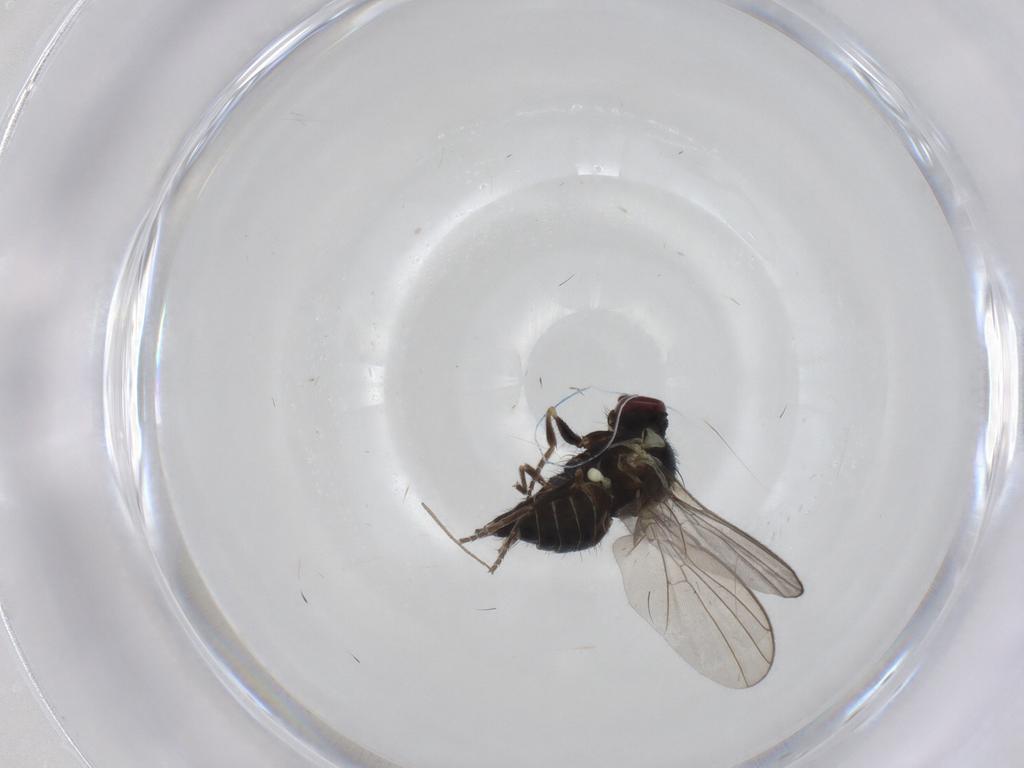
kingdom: Animalia
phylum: Arthropoda
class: Insecta
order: Diptera
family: Agromyzidae
